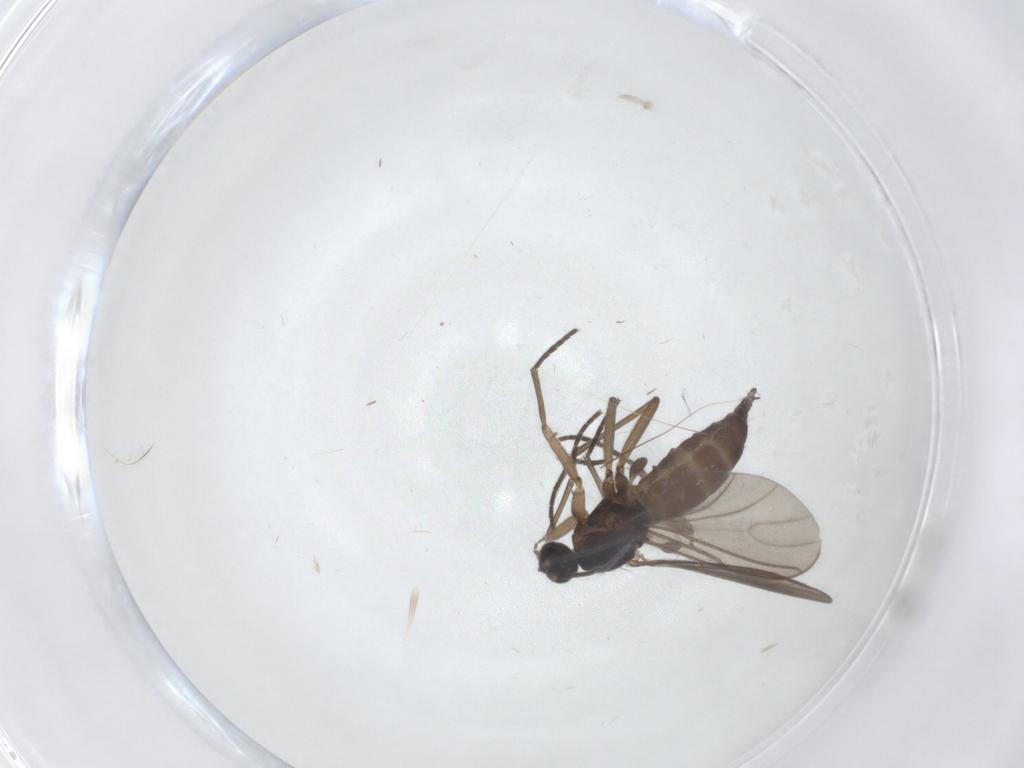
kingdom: Animalia
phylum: Arthropoda
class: Insecta
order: Diptera
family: Sciaridae
